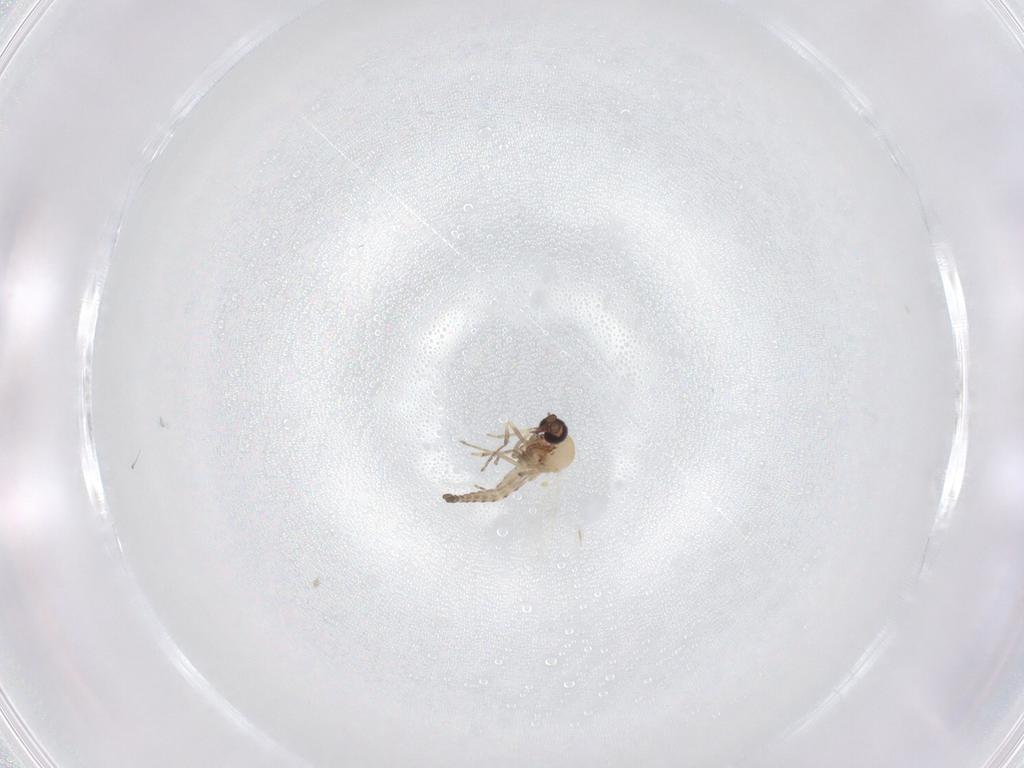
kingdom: Animalia
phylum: Arthropoda
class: Insecta
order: Diptera
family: Ceratopogonidae
